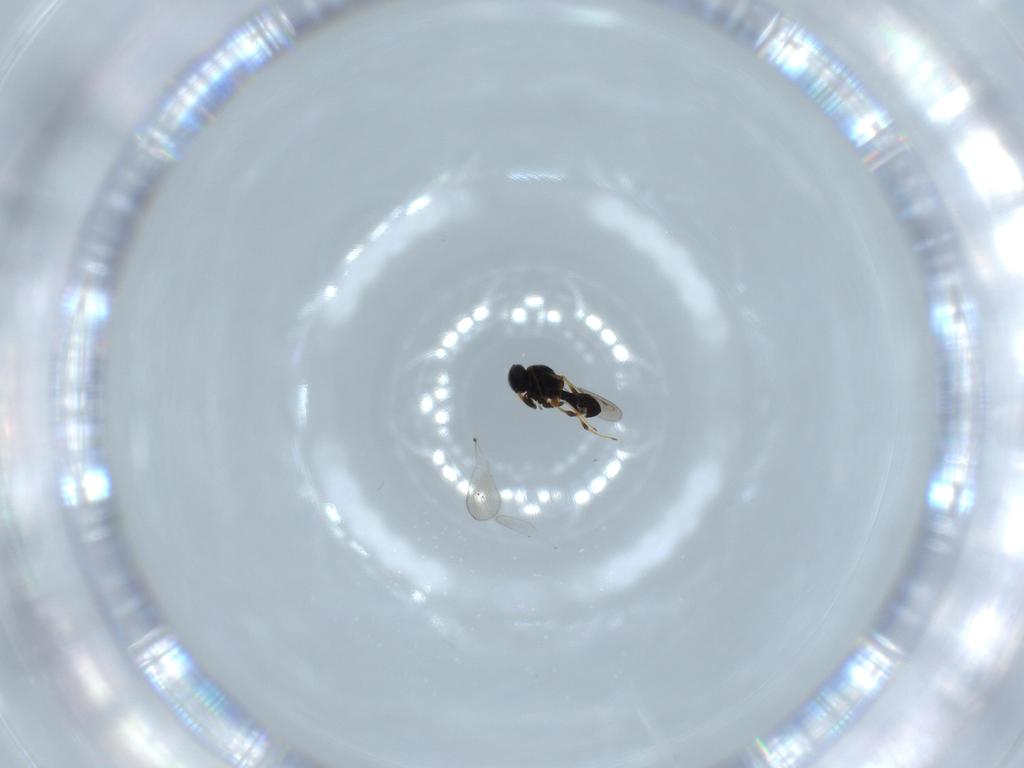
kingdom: Animalia
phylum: Arthropoda
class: Insecta
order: Hymenoptera
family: Platygastridae
